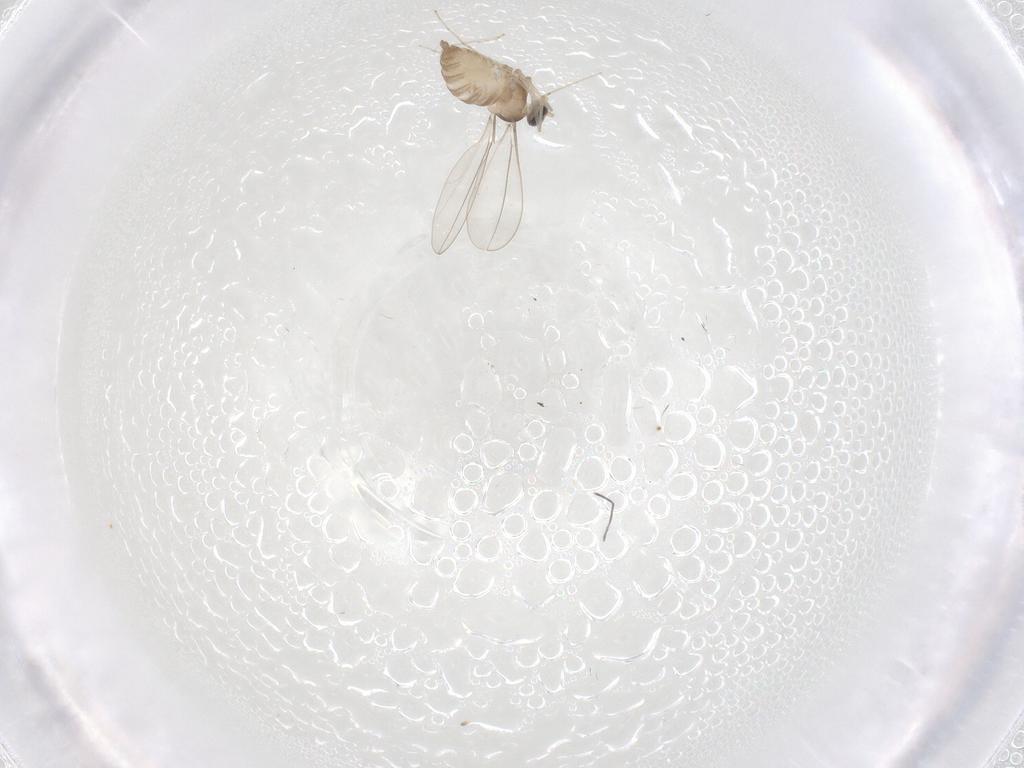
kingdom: Animalia
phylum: Arthropoda
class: Insecta
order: Diptera
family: Cecidomyiidae
